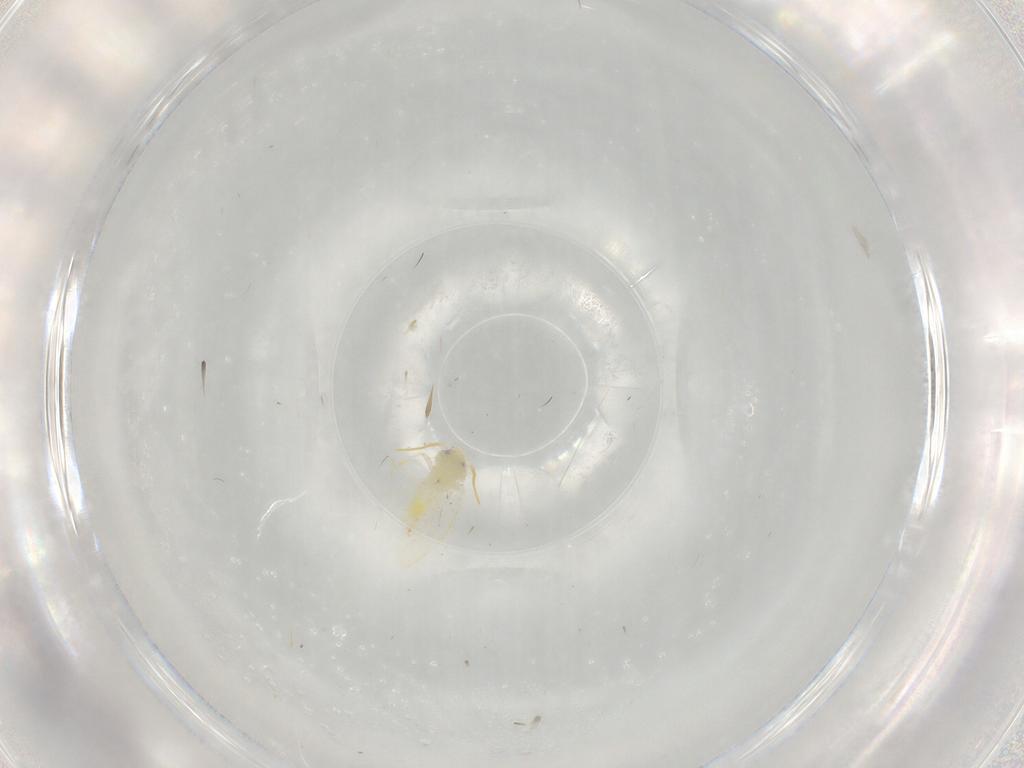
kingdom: Animalia
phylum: Arthropoda
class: Insecta
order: Hemiptera
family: Aleyrodidae
